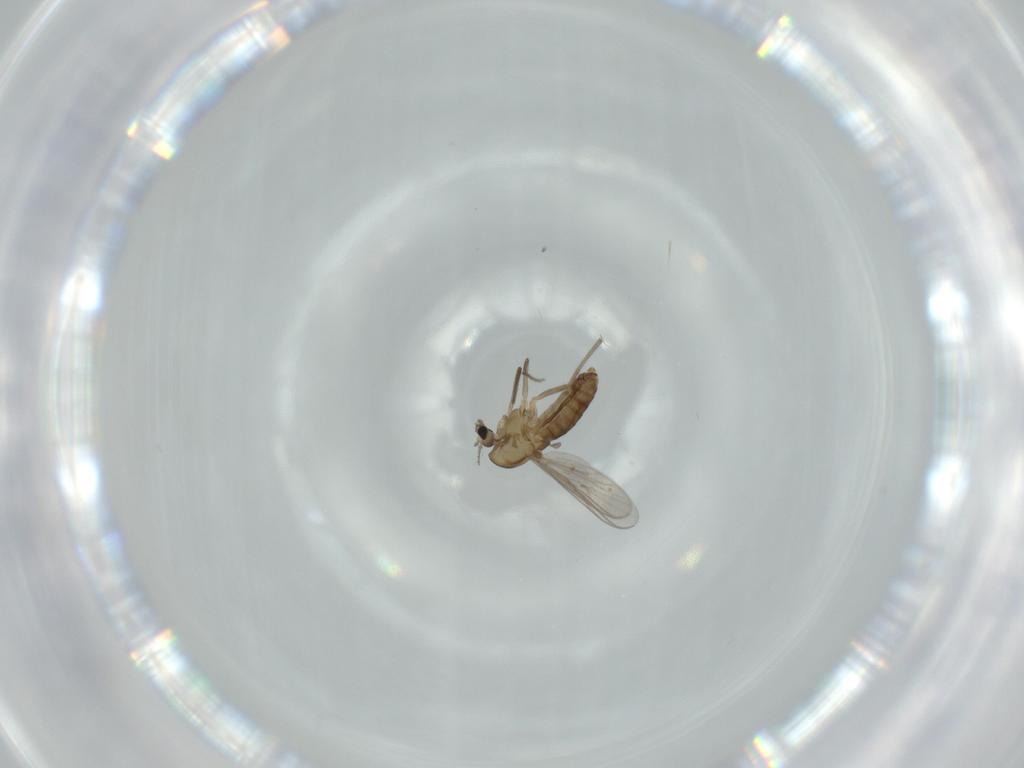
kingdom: Animalia
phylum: Arthropoda
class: Insecta
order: Diptera
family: Chironomidae
